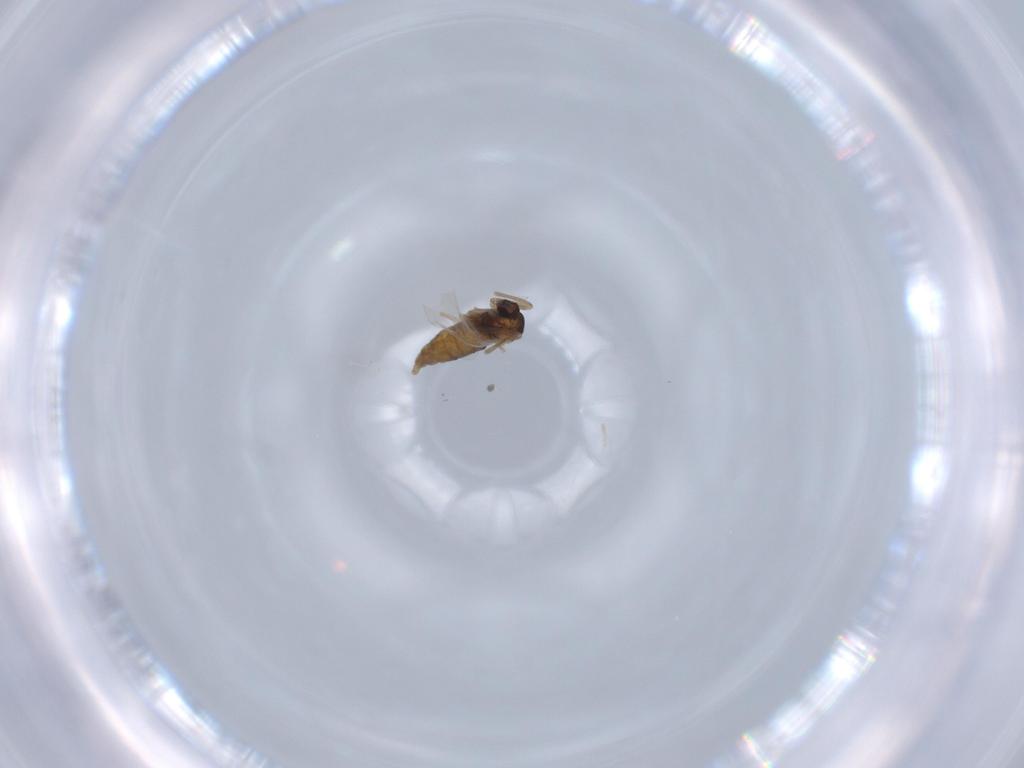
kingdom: Animalia
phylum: Arthropoda
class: Insecta
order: Diptera
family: Cecidomyiidae
